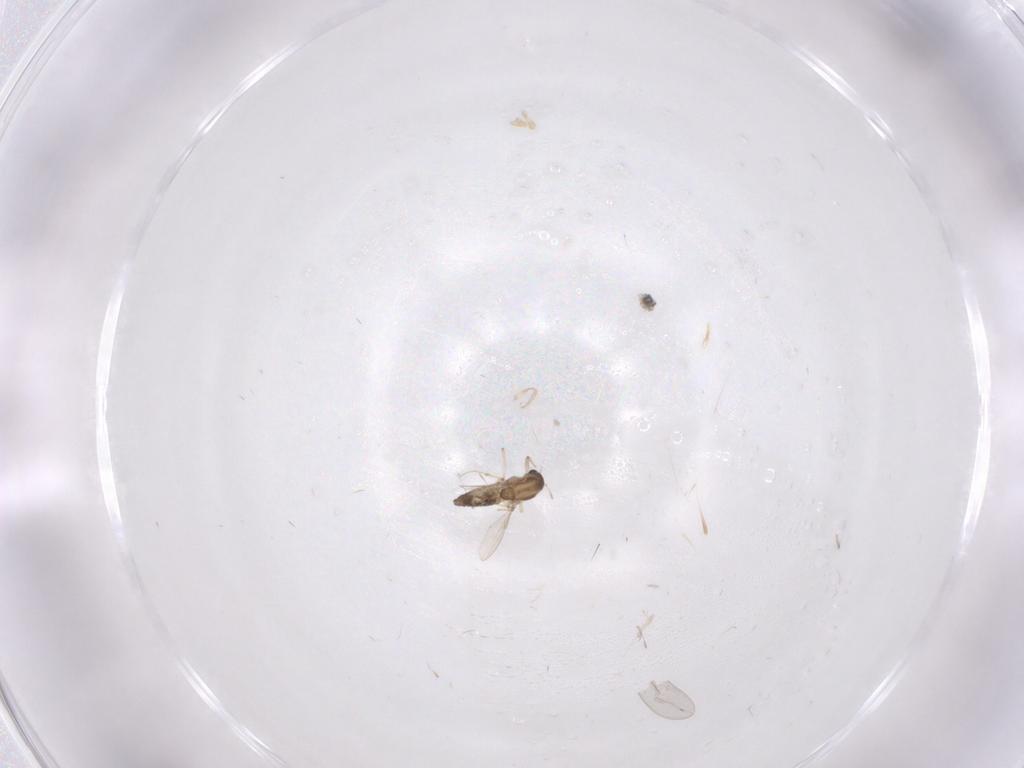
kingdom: Animalia
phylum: Arthropoda
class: Insecta
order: Diptera
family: Chironomidae
